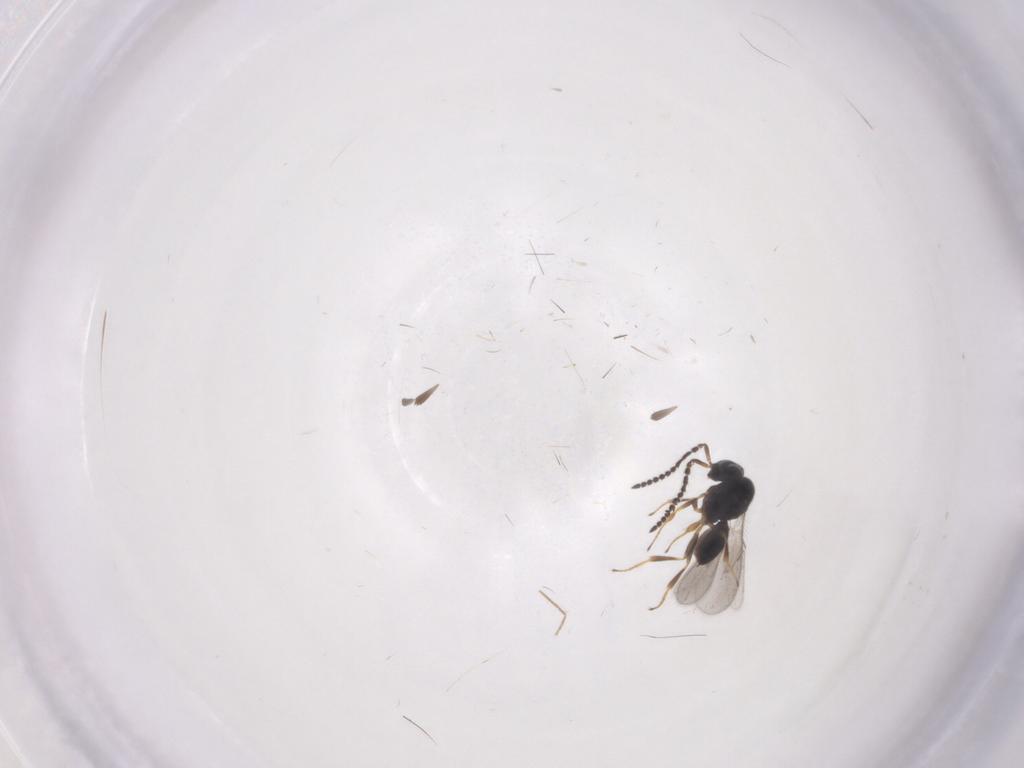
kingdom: Animalia
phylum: Arthropoda
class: Insecta
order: Hymenoptera
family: Scelionidae
